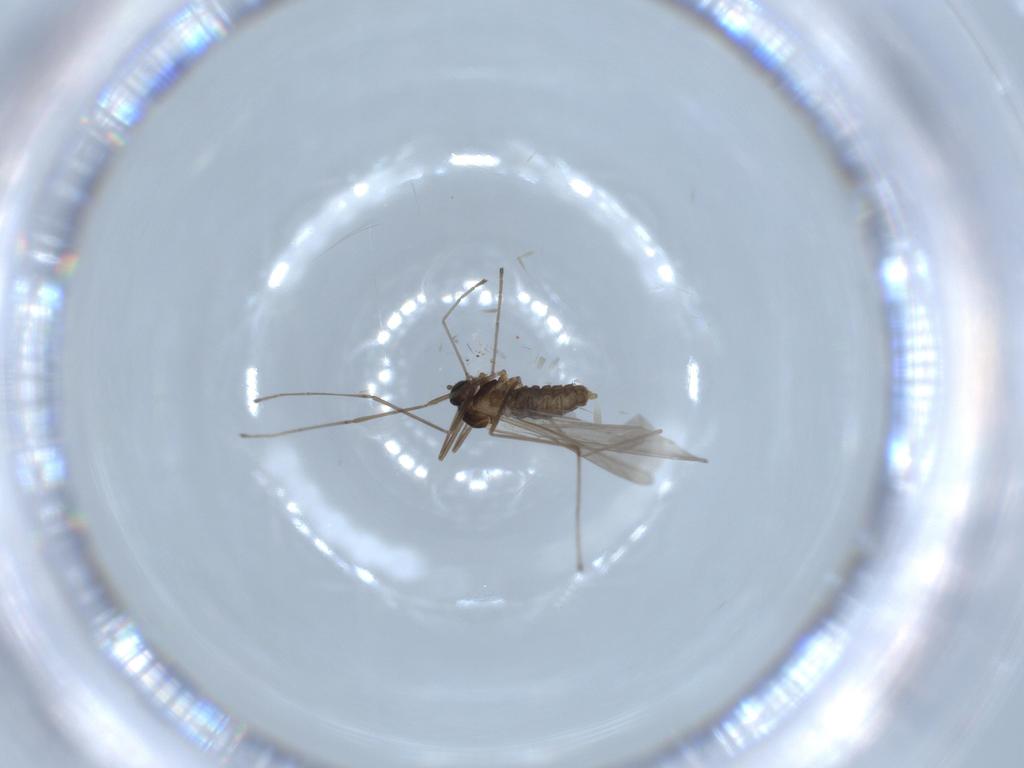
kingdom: Animalia
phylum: Arthropoda
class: Insecta
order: Diptera
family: Cecidomyiidae
